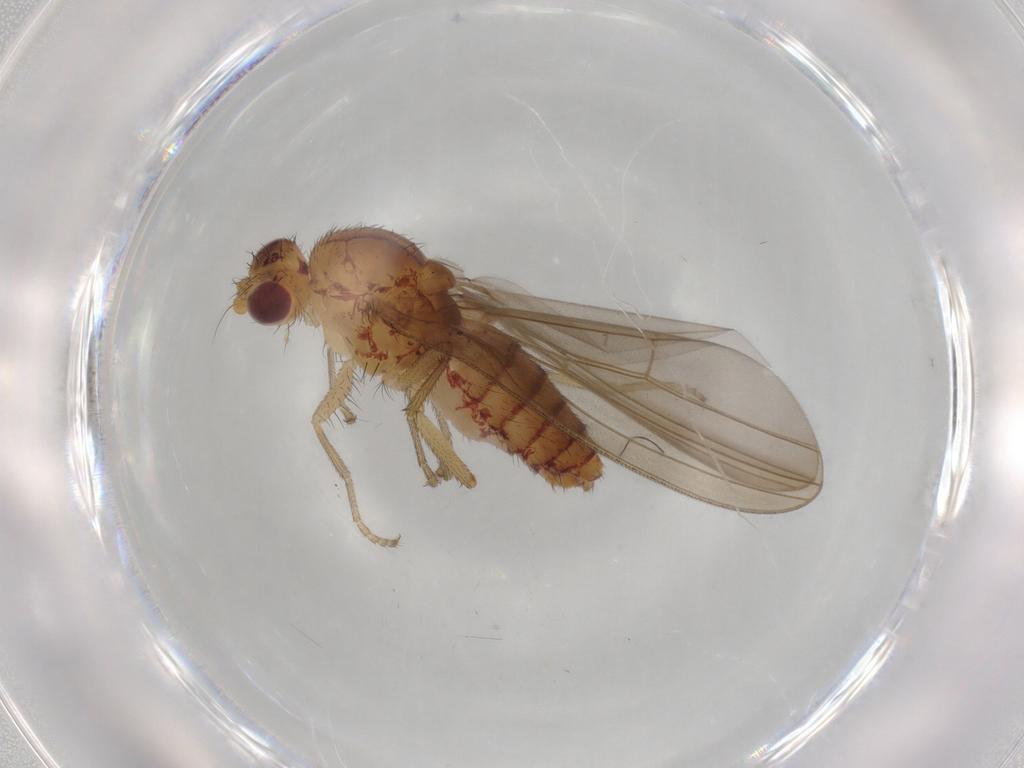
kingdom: Animalia
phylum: Arthropoda
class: Insecta
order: Diptera
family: Natalimyzidae
